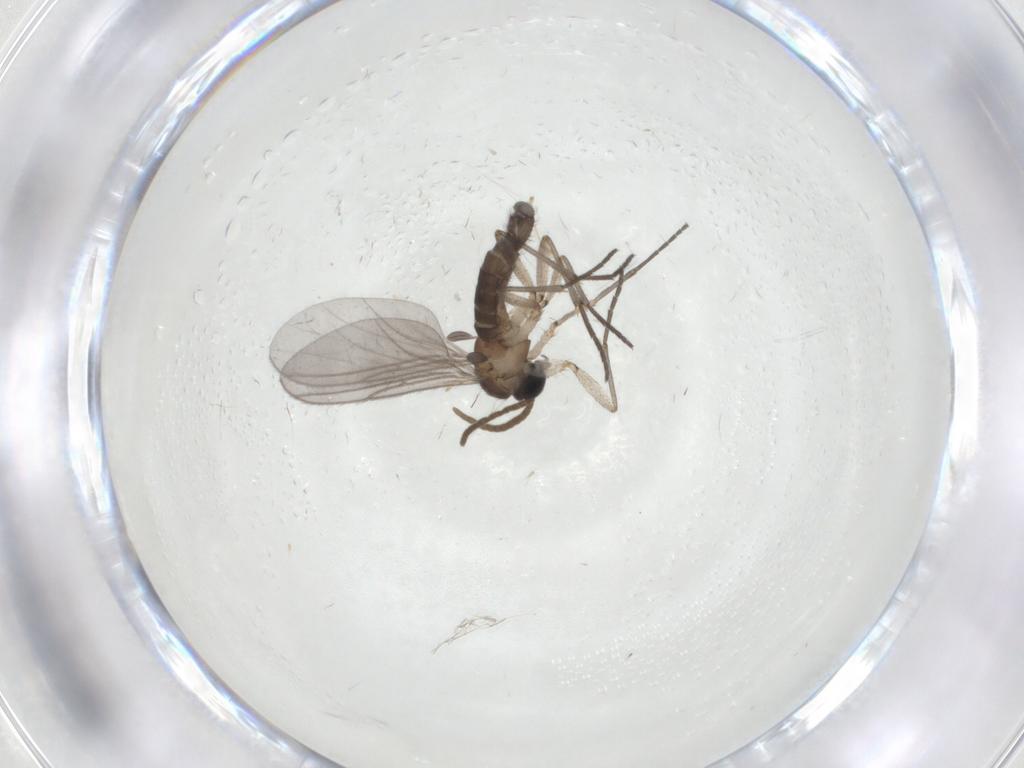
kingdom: Animalia
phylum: Arthropoda
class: Insecta
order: Diptera
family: Cecidomyiidae
